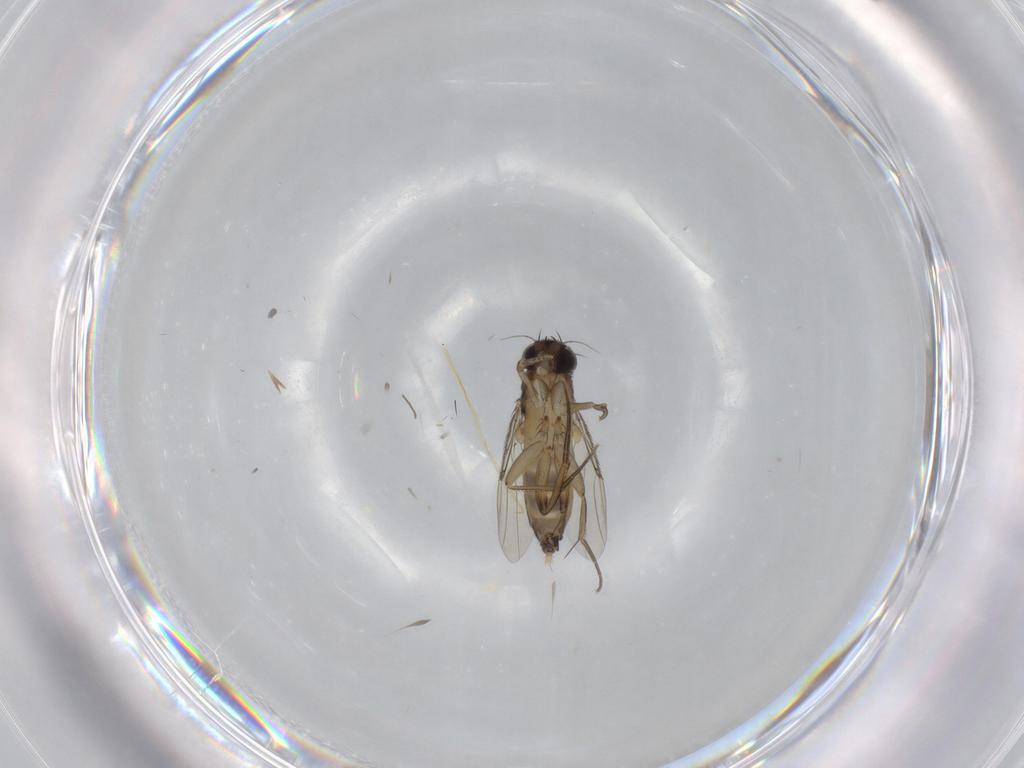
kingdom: Animalia
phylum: Arthropoda
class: Insecta
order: Diptera
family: Phoridae
